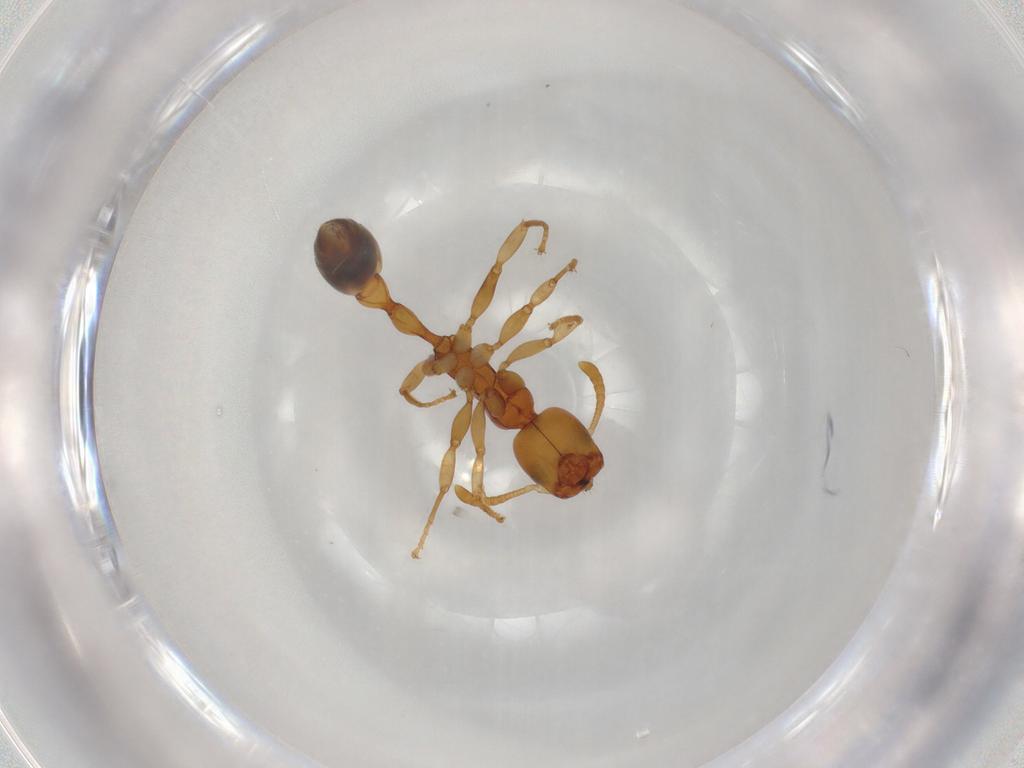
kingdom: Animalia
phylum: Arthropoda
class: Insecta
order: Hymenoptera
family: Formicidae
